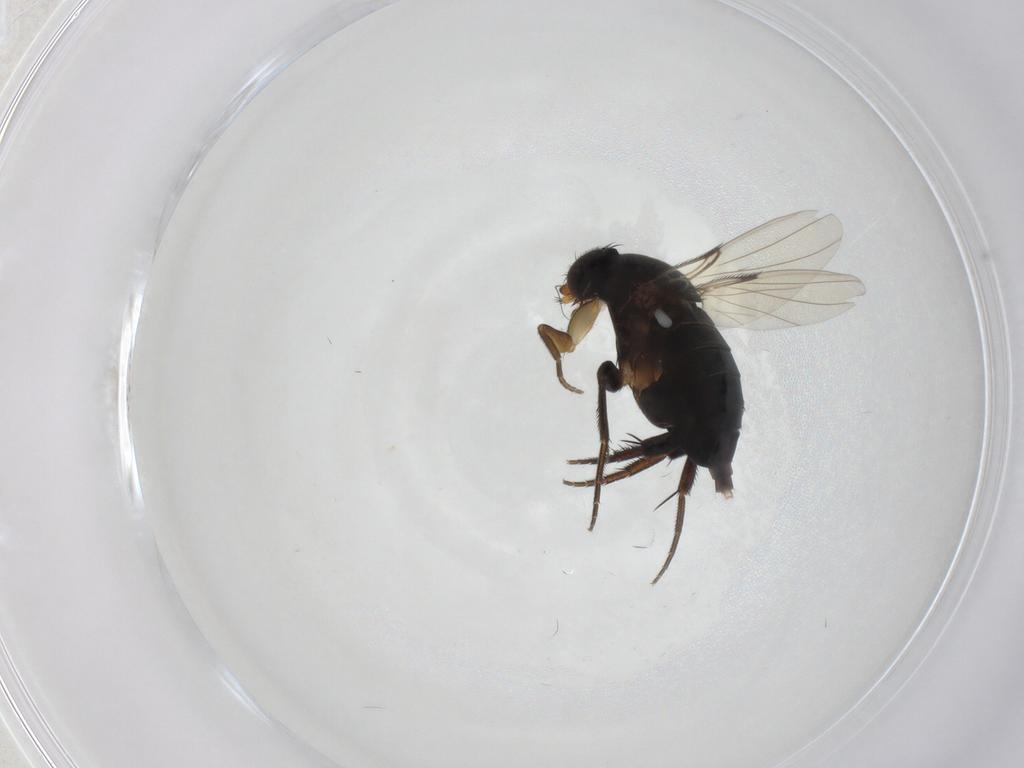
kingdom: Animalia
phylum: Arthropoda
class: Insecta
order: Diptera
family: Phoridae
